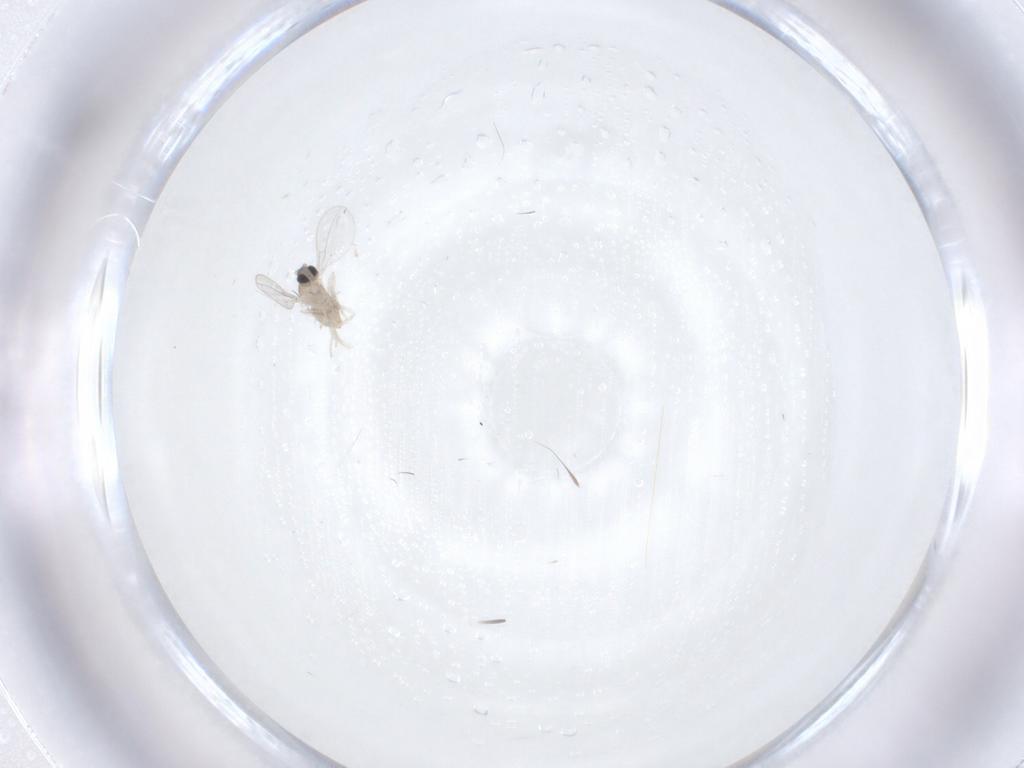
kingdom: Animalia
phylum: Arthropoda
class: Insecta
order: Diptera
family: Cecidomyiidae
